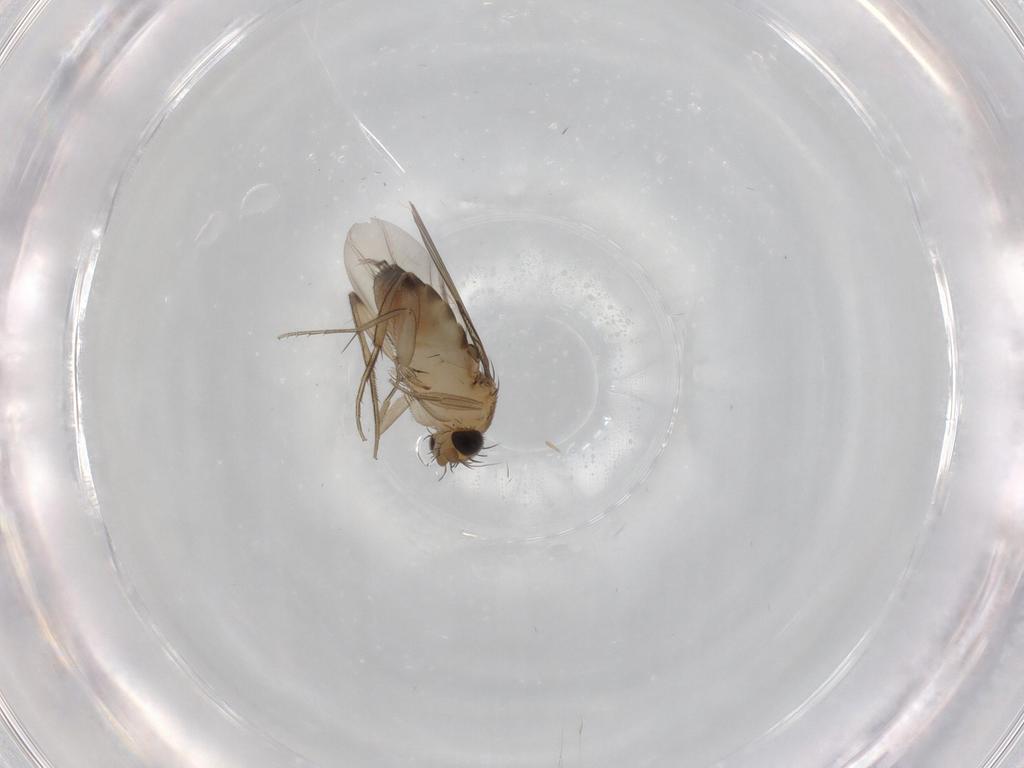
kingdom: Animalia
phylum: Arthropoda
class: Insecta
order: Diptera
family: Phoridae
